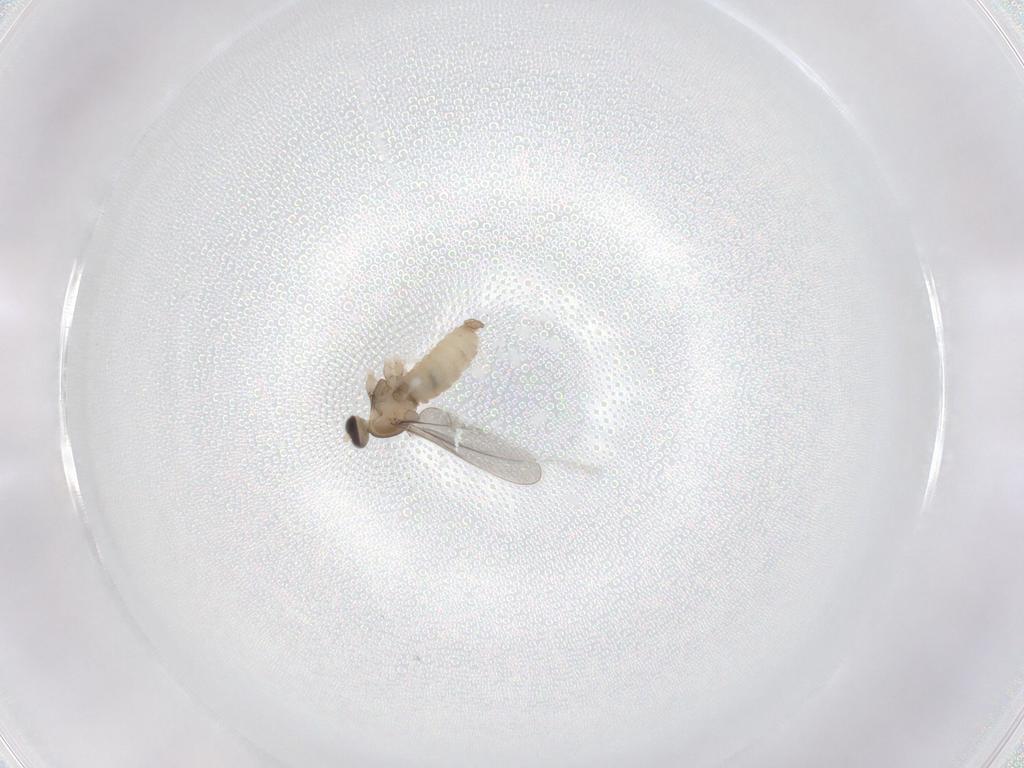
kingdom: Animalia
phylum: Arthropoda
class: Insecta
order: Diptera
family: Cecidomyiidae
